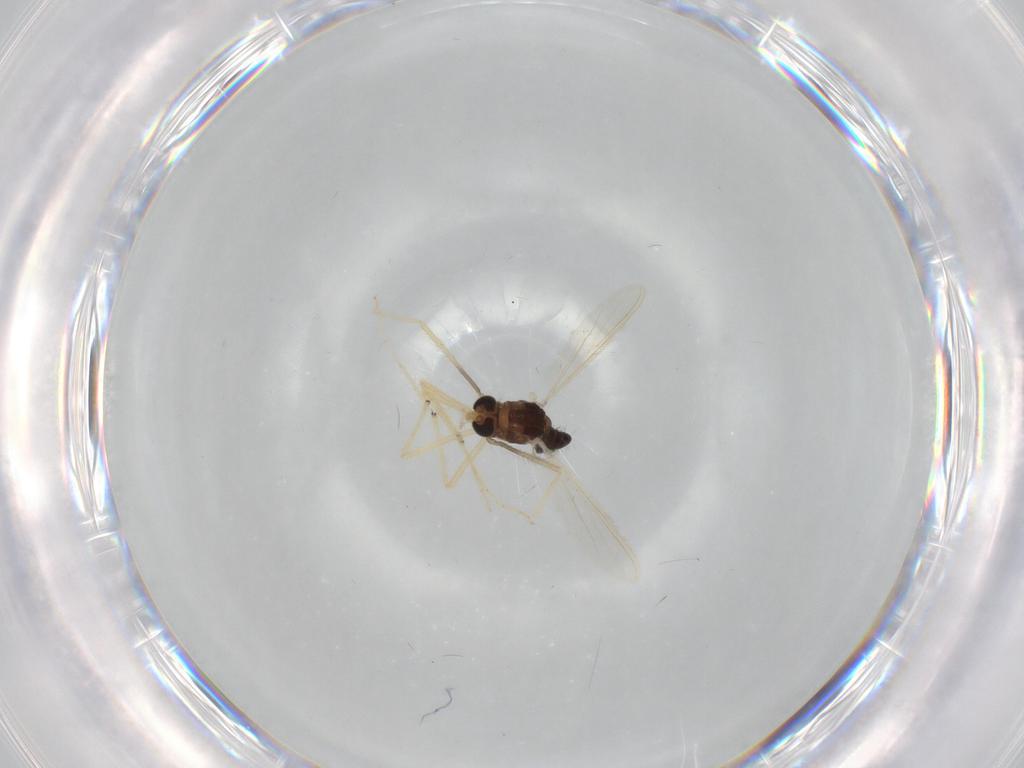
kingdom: Animalia
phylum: Arthropoda
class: Insecta
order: Diptera
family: Chironomidae
